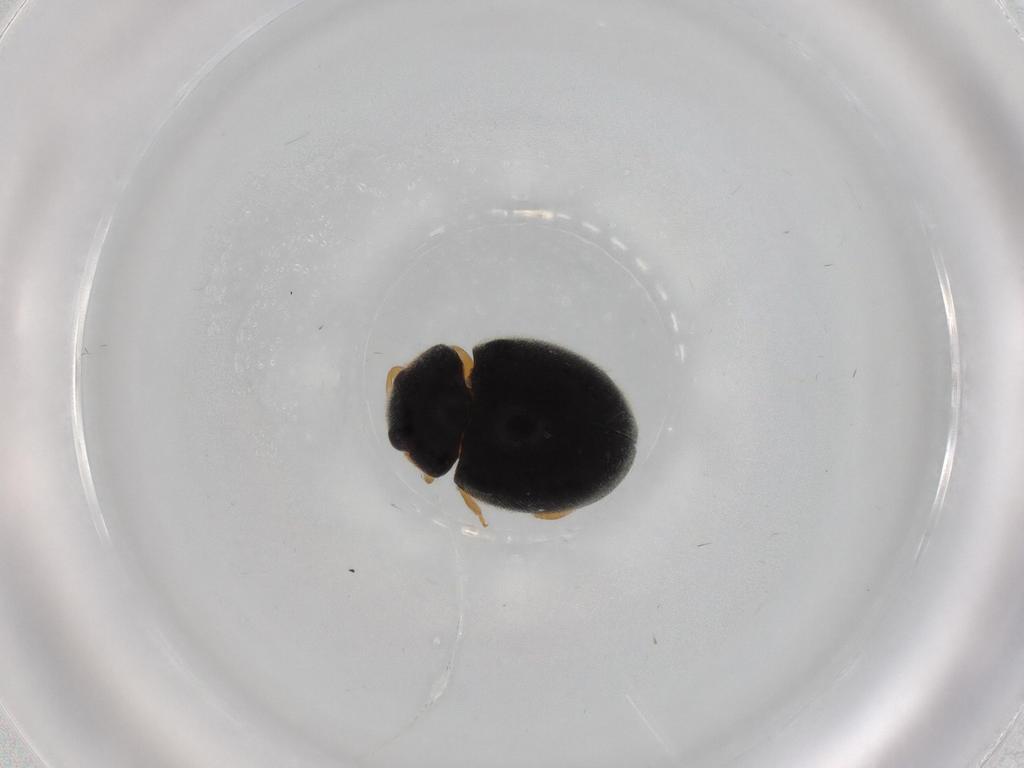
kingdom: Animalia
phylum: Arthropoda
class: Insecta
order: Coleoptera
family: Coccinellidae
